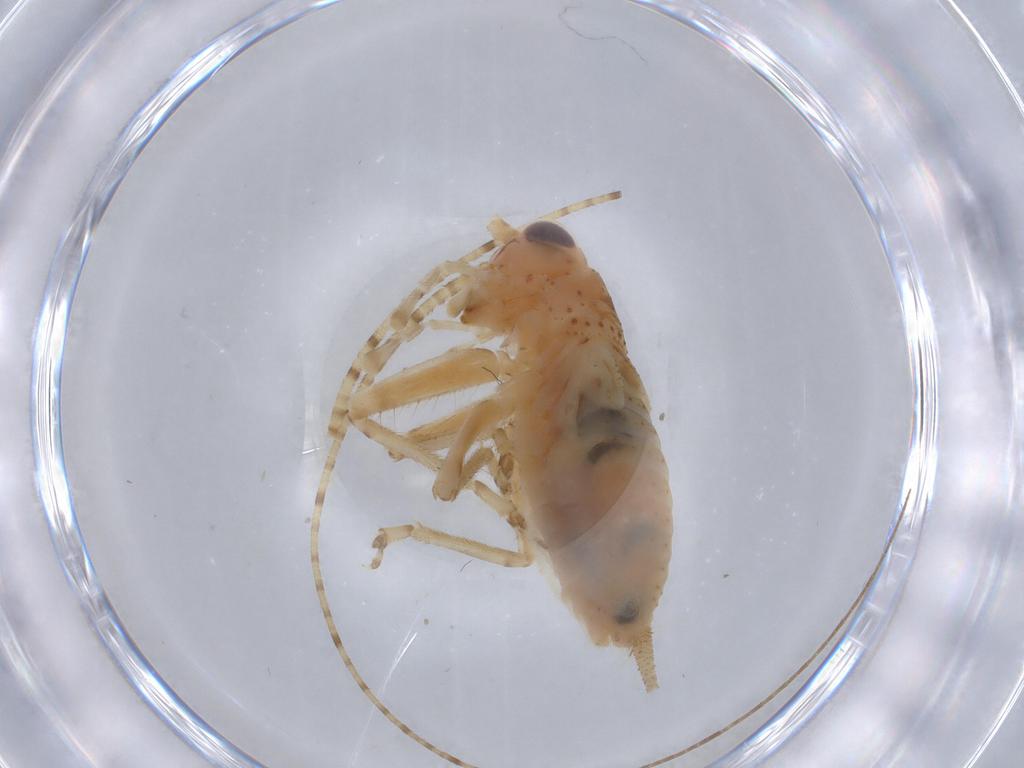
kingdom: Animalia
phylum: Arthropoda
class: Insecta
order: Orthoptera
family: Trigonidiidae
